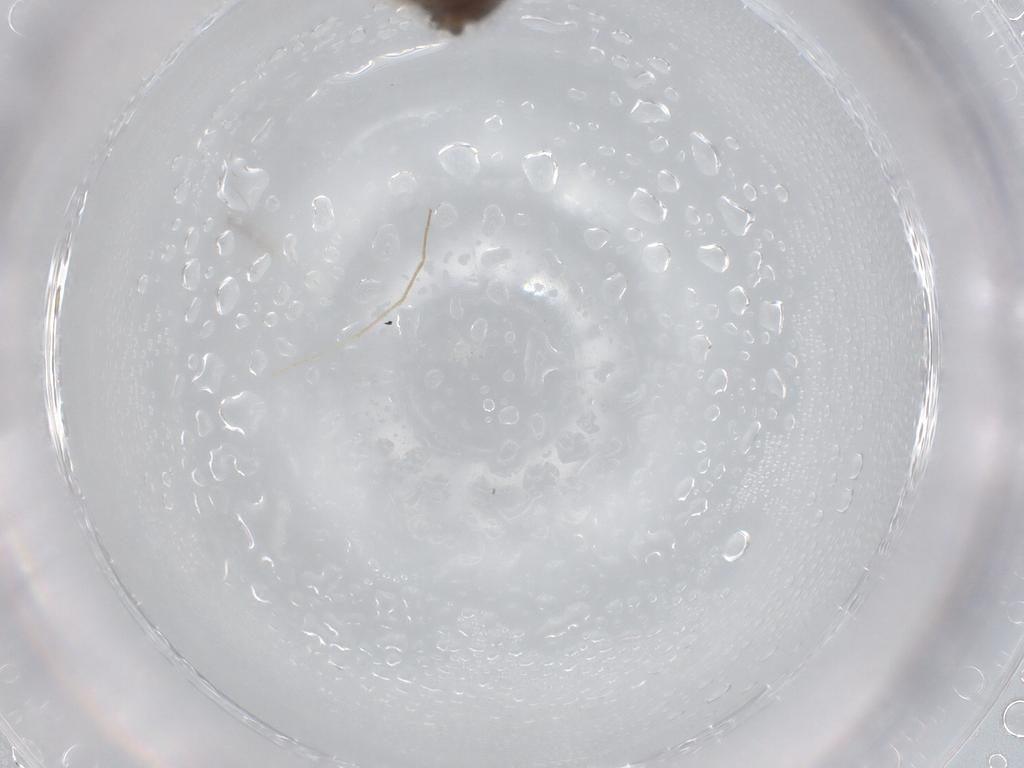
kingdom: Animalia
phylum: Arthropoda
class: Insecta
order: Diptera
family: Chironomidae
